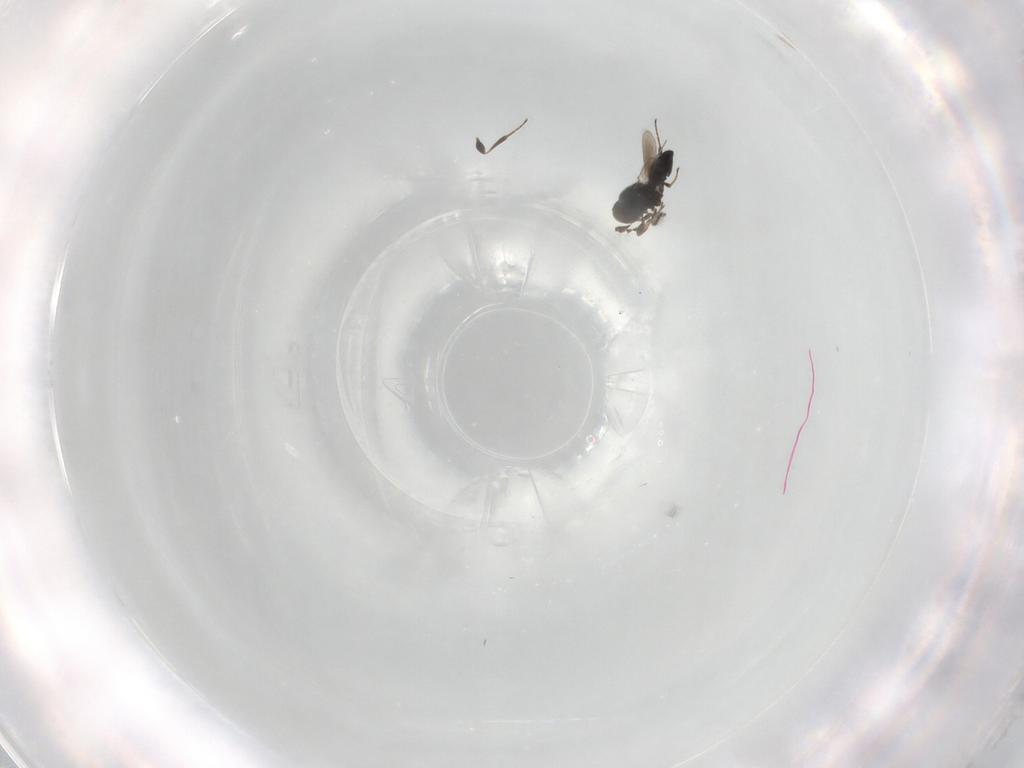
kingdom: Animalia
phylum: Arthropoda
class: Insecta
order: Hymenoptera
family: Platygastridae
